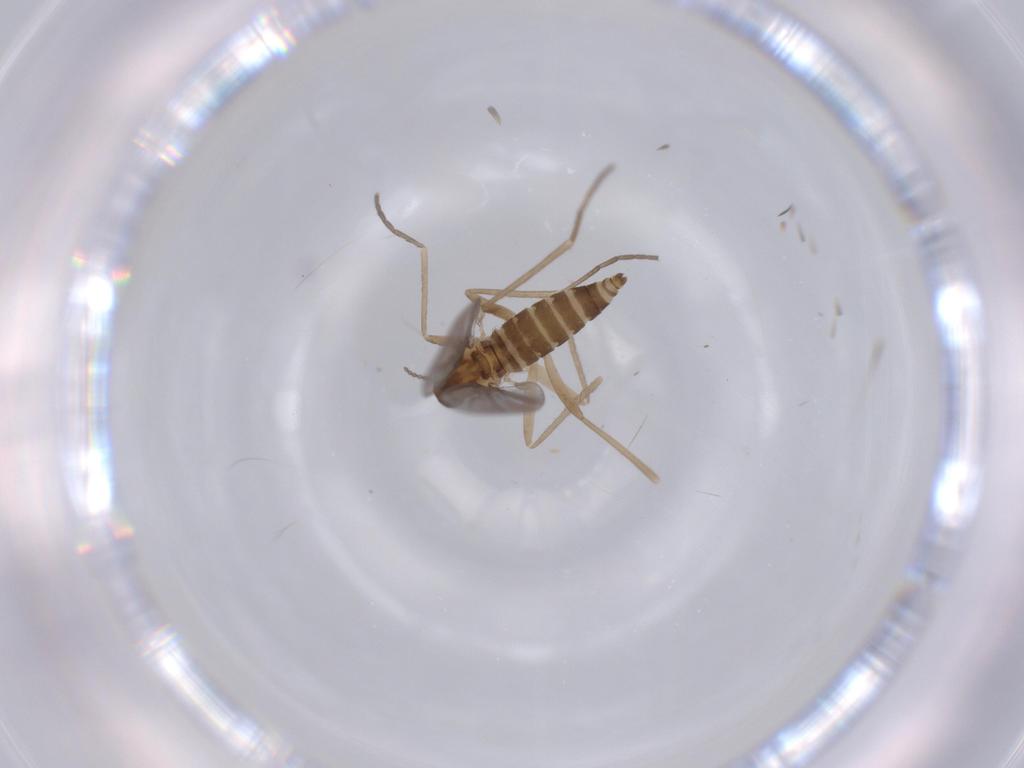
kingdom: Animalia
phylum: Arthropoda
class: Insecta
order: Diptera
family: Cecidomyiidae
